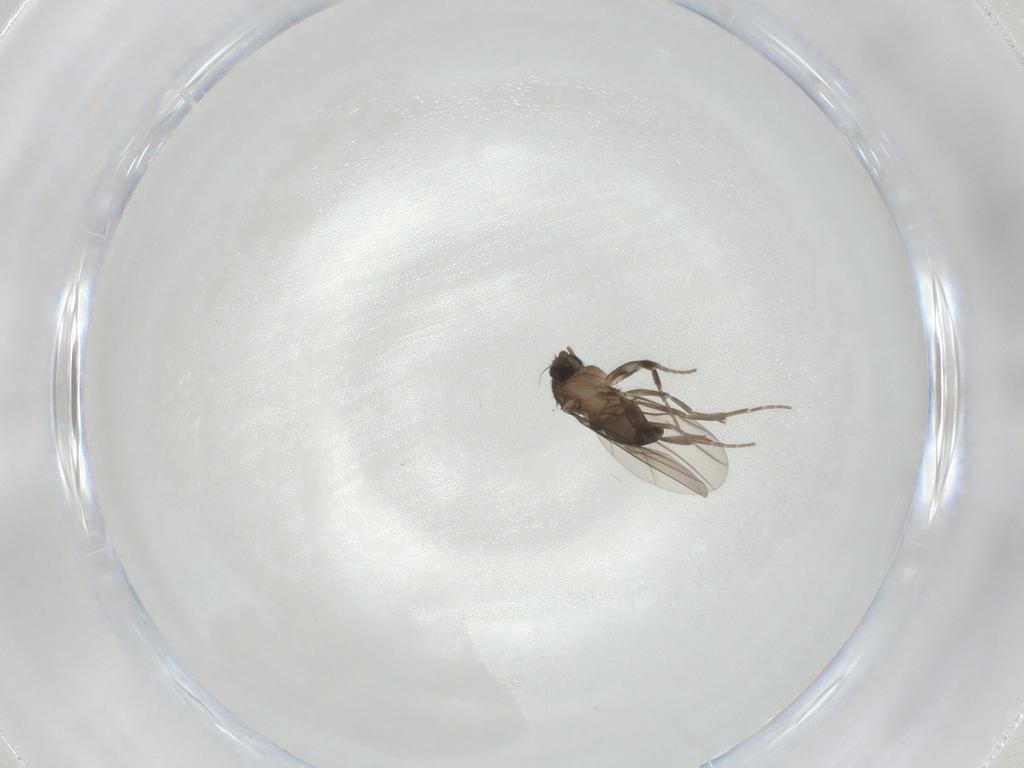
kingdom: Animalia
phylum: Arthropoda
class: Insecta
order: Diptera
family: Phoridae
